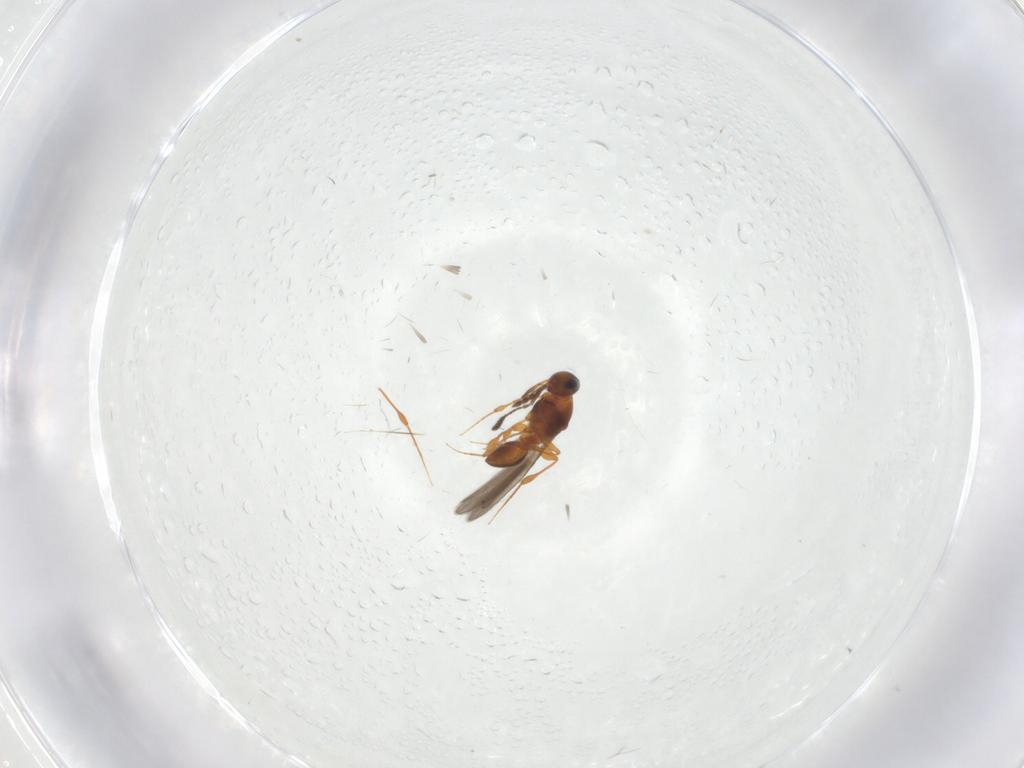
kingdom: Animalia
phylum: Arthropoda
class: Insecta
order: Hymenoptera
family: Platygastridae
